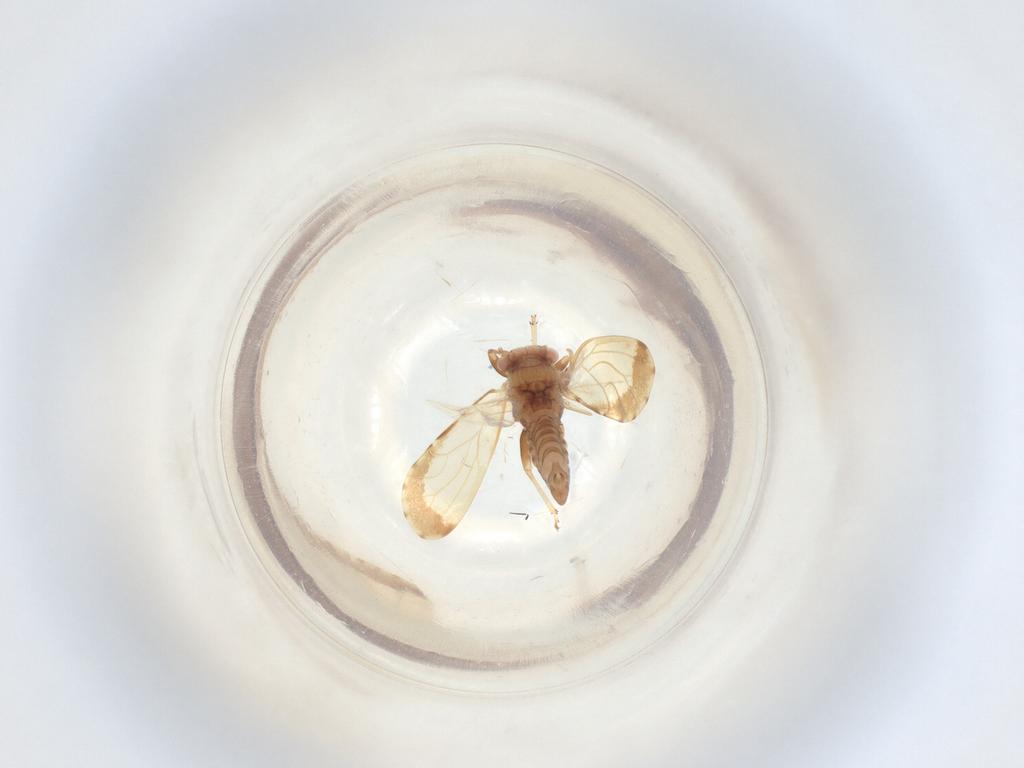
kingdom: Animalia
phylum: Arthropoda
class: Insecta
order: Hemiptera
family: Psyllidae
